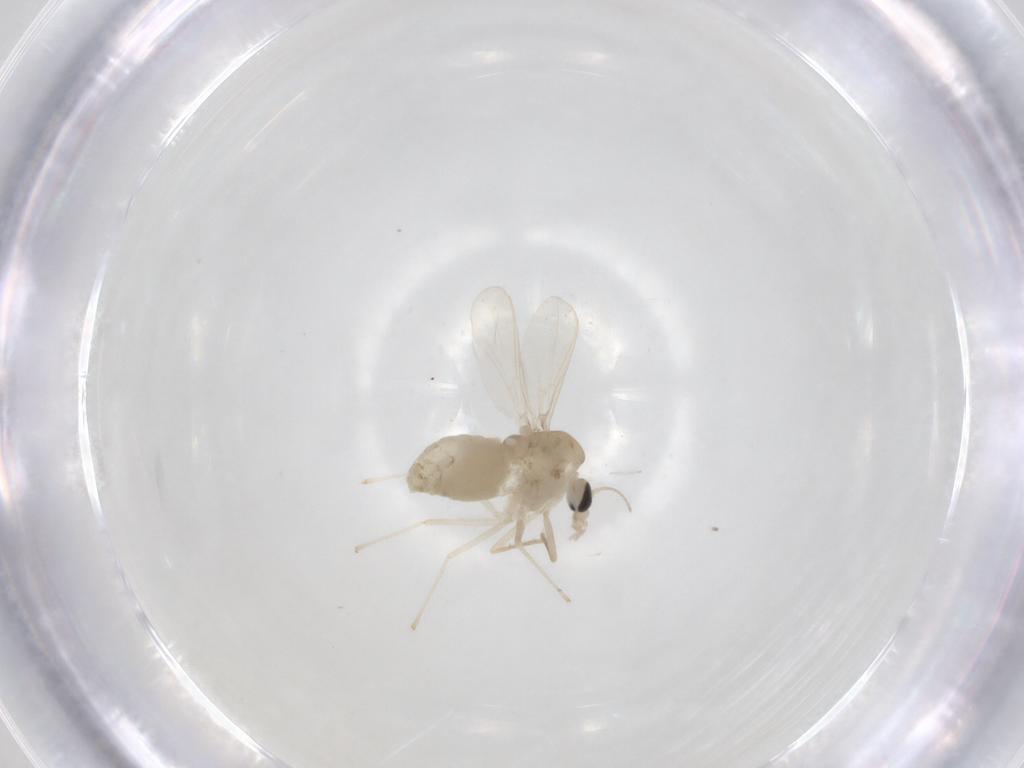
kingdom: Animalia
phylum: Arthropoda
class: Insecta
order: Diptera
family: Chironomidae
